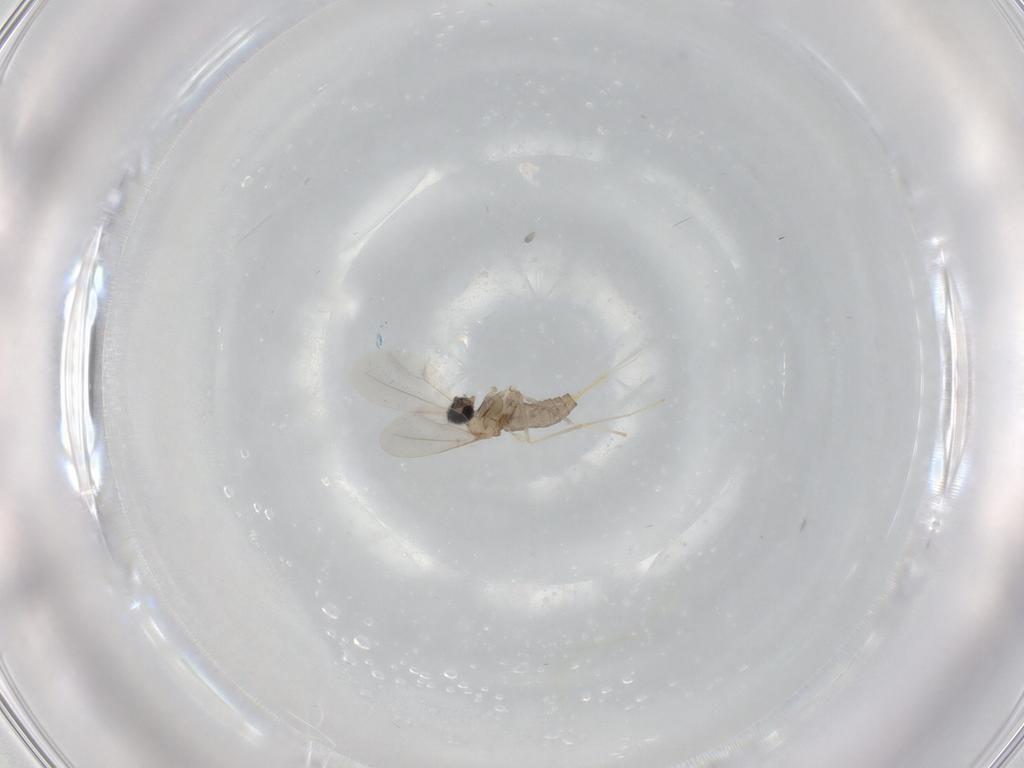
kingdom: Animalia
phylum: Arthropoda
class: Insecta
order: Diptera
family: Cecidomyiidae
